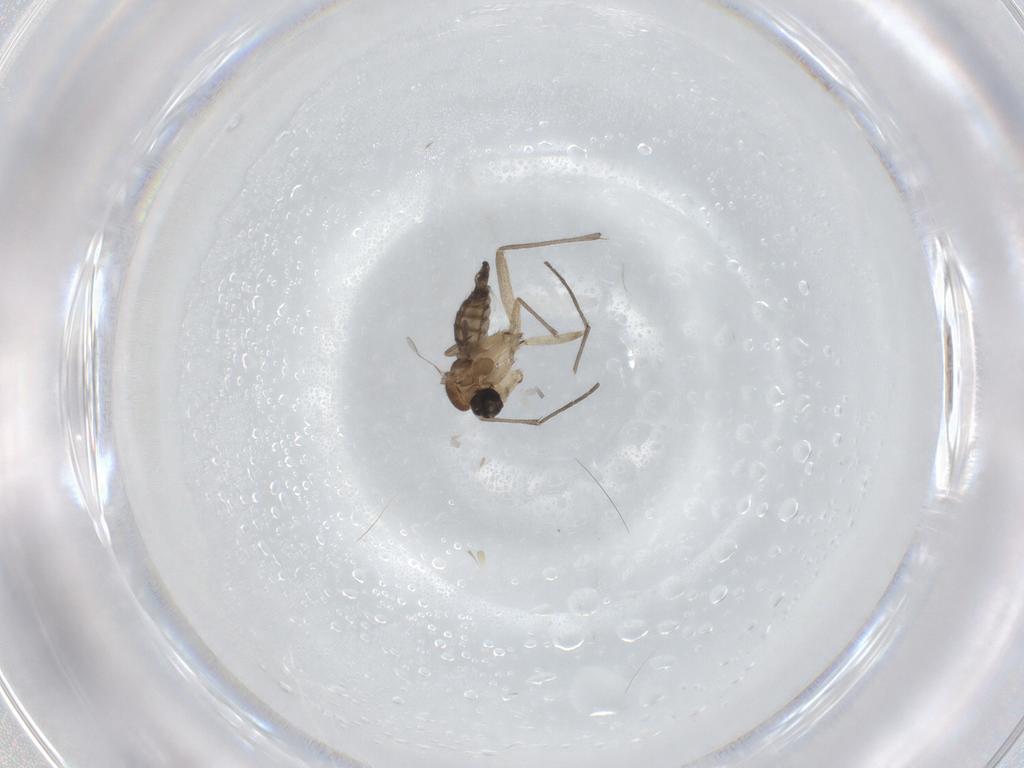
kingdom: Animalia
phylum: Arthropoda
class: Insecta
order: Diptera
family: Sciaridae
